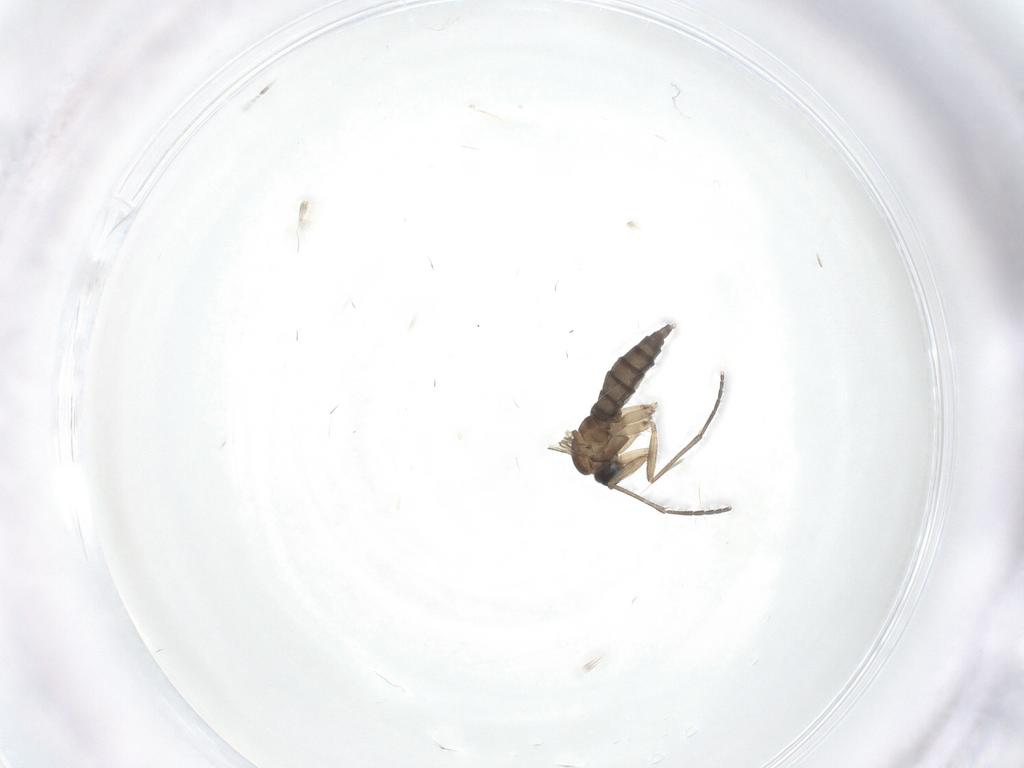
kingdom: Animalia
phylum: Arthropoda
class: Insecta
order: Diptera
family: Sciaridae
